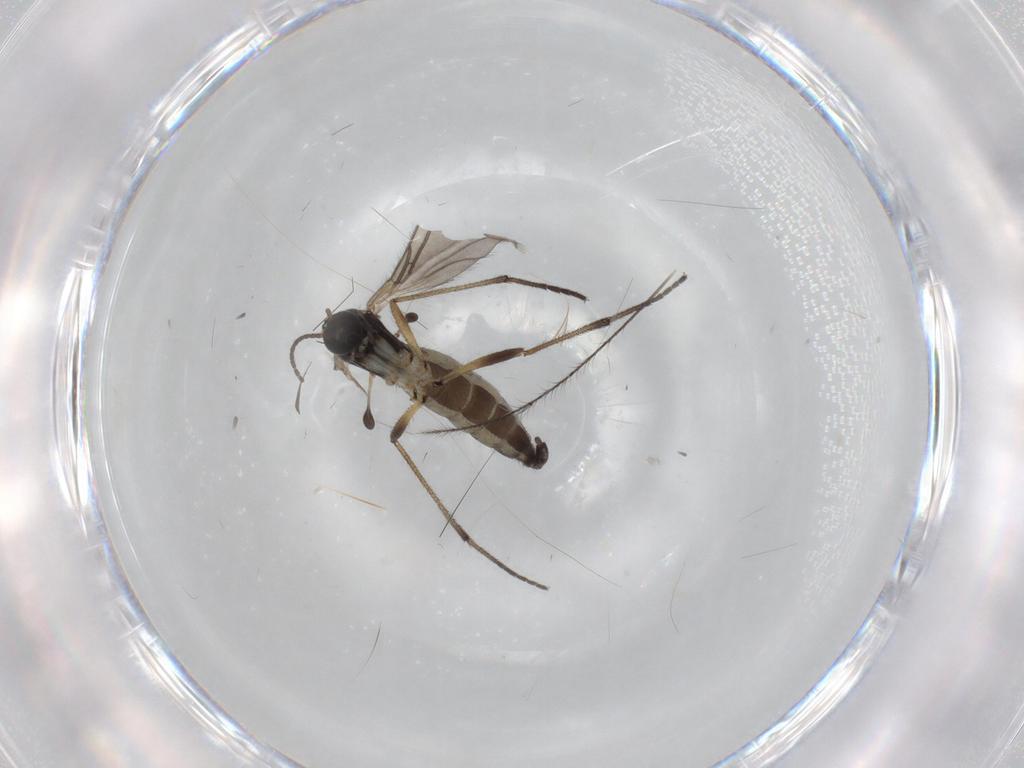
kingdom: Animalia
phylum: Arthropoda
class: Insecta
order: Diptera
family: Sciaridae
